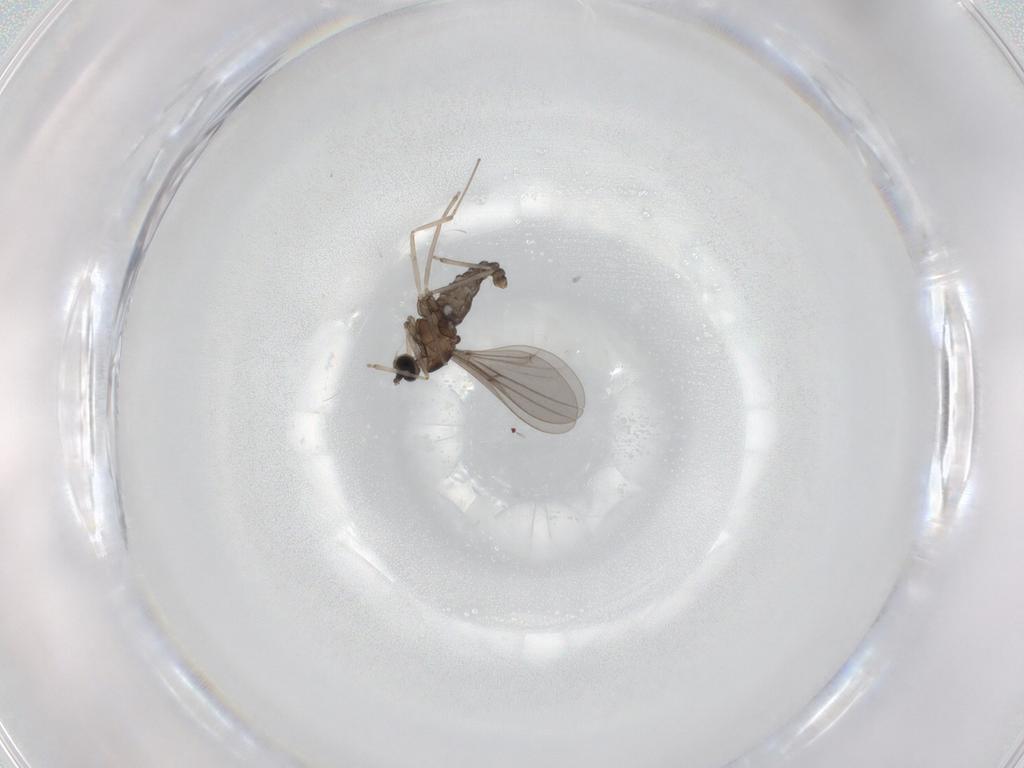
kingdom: Animalia
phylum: Arthropoda
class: Insecta
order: Diptera
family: Cecidomyiidae
